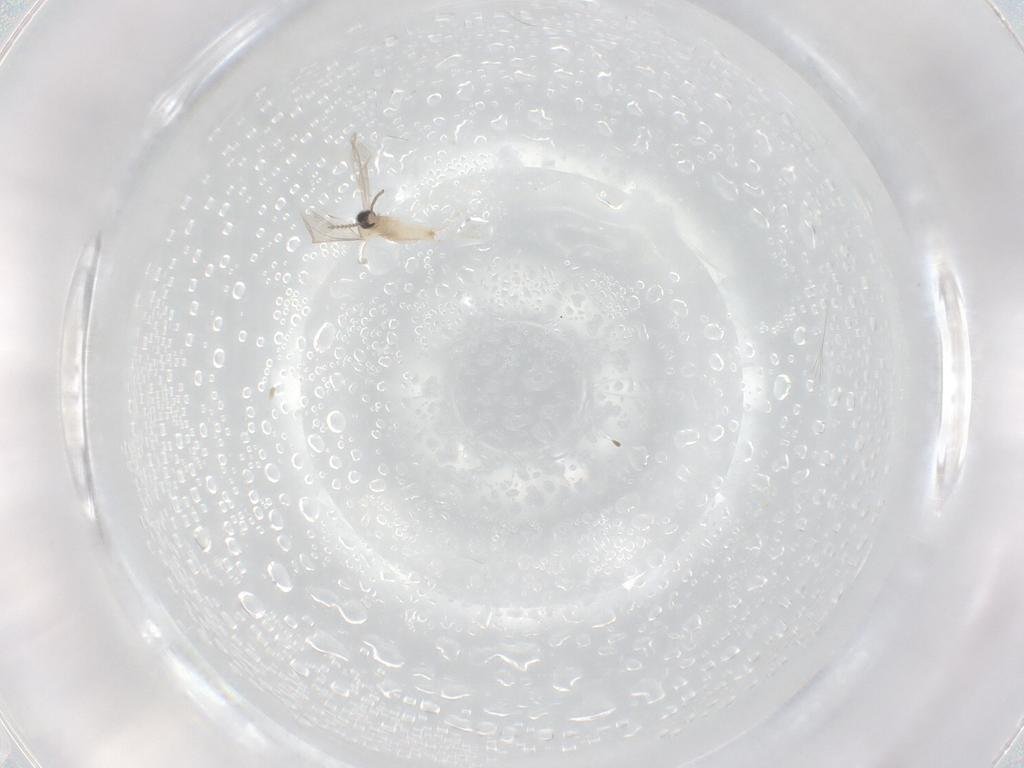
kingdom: Animalia
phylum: Arthropoda
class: Insecta
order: Diptera
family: Cecidomyiidae
